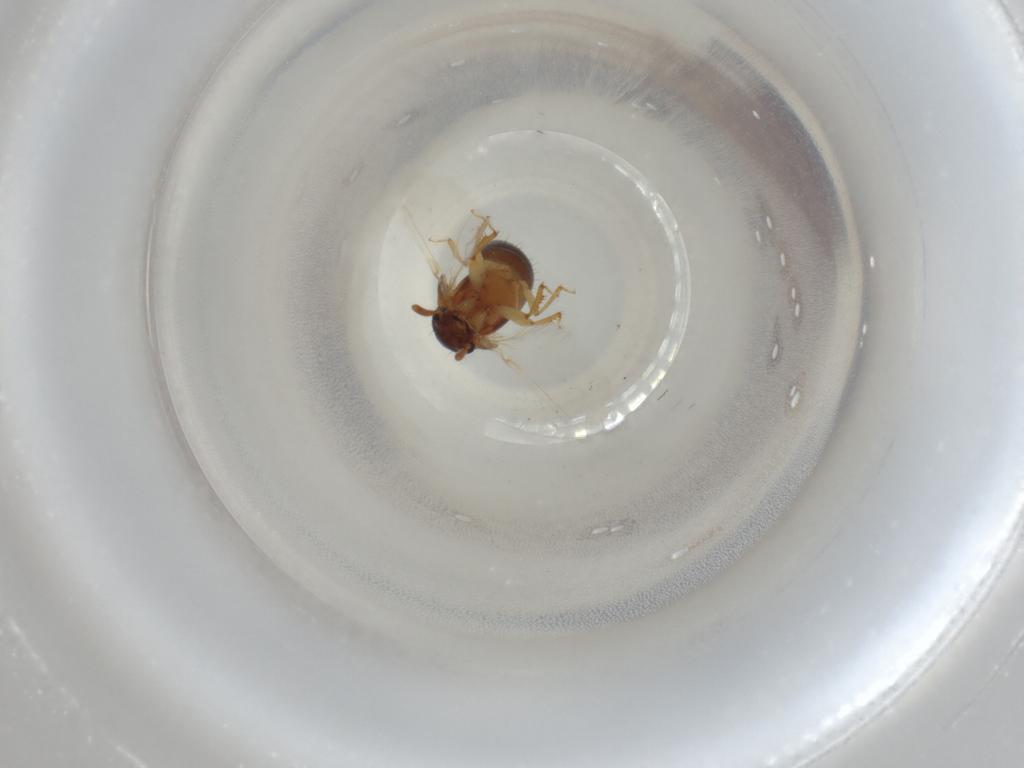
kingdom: Animalia
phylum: Arthropoda
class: Insecta
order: Coleoptera
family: Staphylinidae
